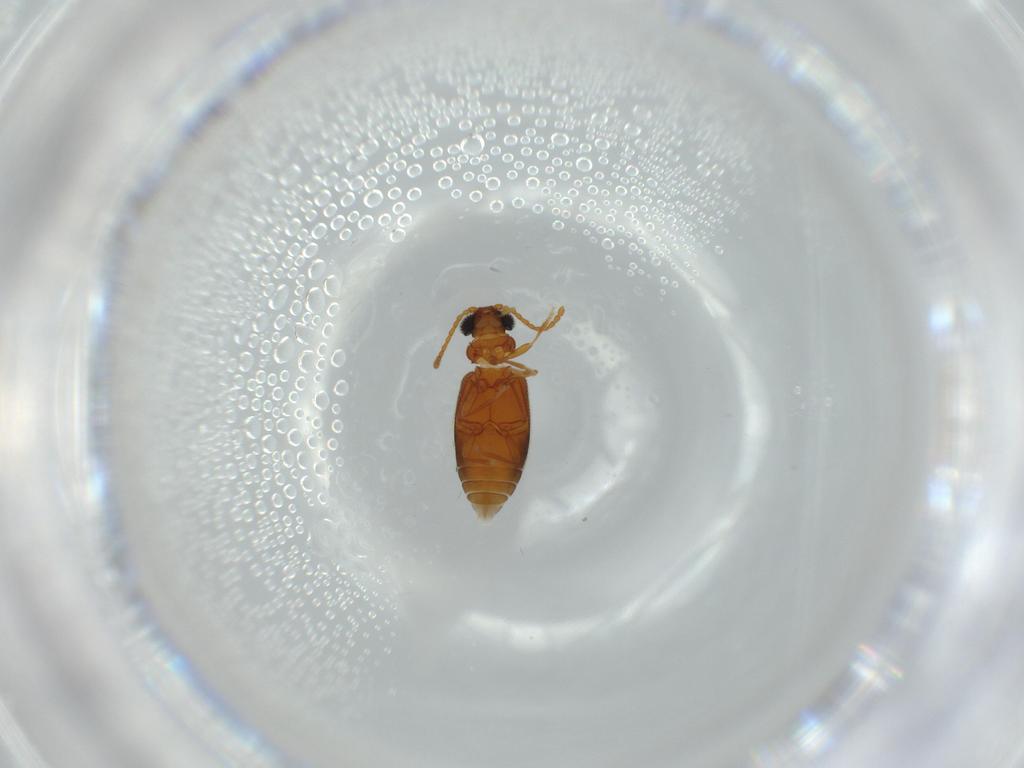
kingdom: Animalia
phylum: Arthropoda
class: Insecta
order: Coleoptera
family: Aderidae
